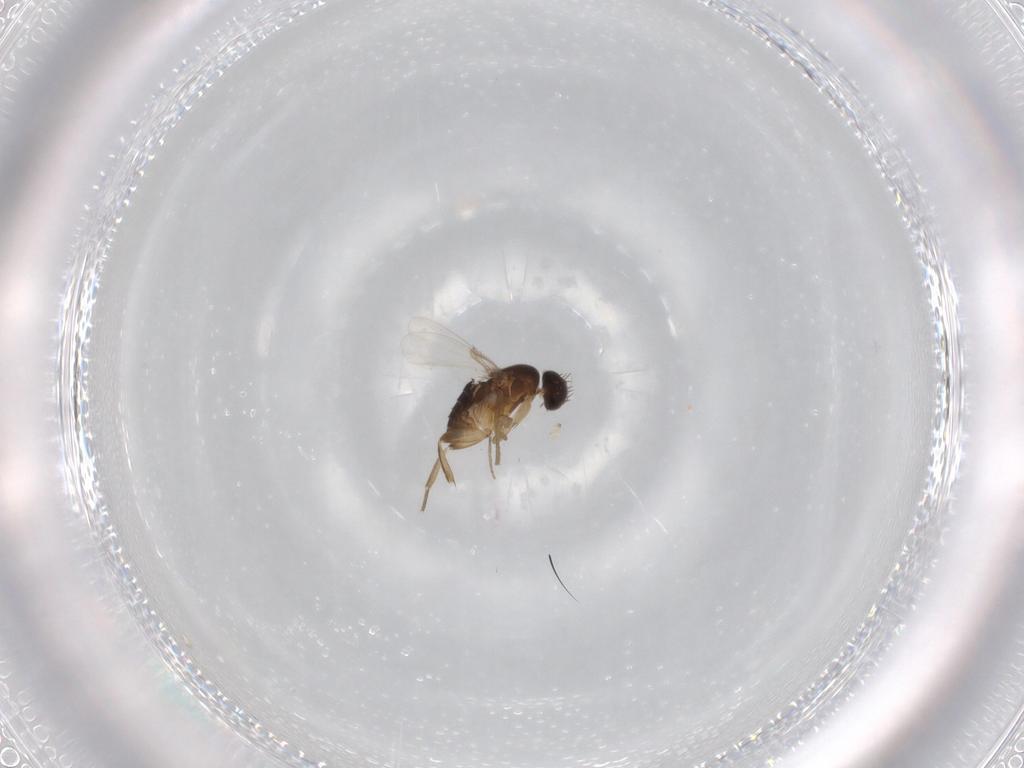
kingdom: Animalia
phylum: Arthropoda
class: Insecta
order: Diptera
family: Phoridae
